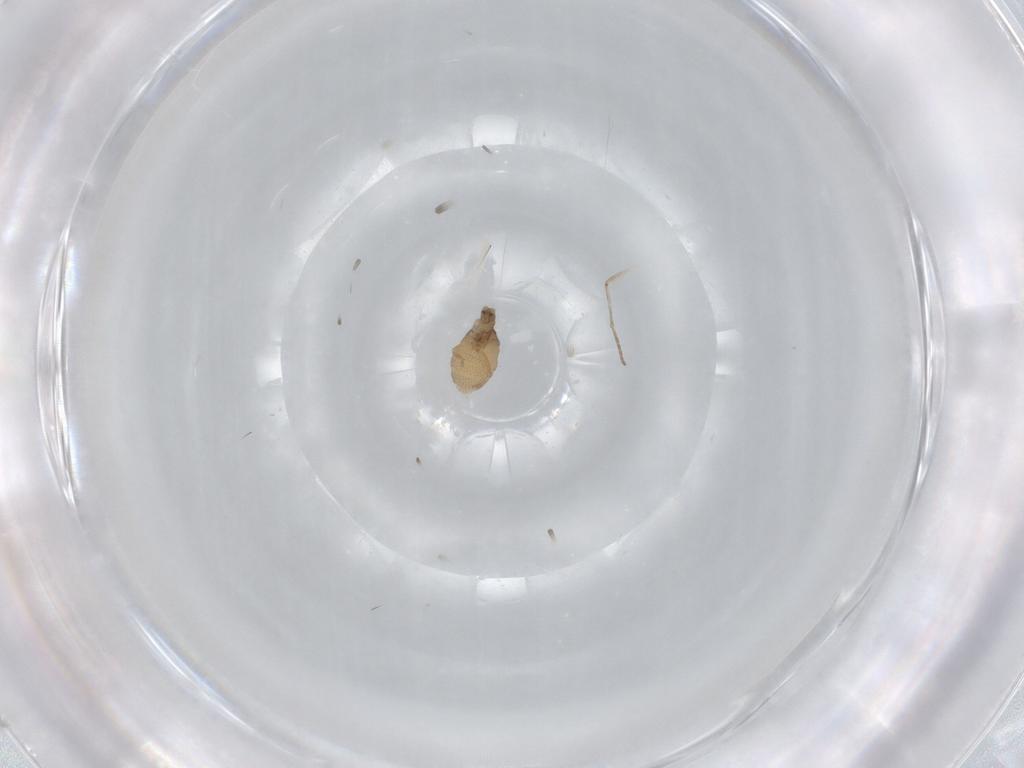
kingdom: Animalia
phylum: Arthropoda
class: Insecta
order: Diptera
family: Phoridae
